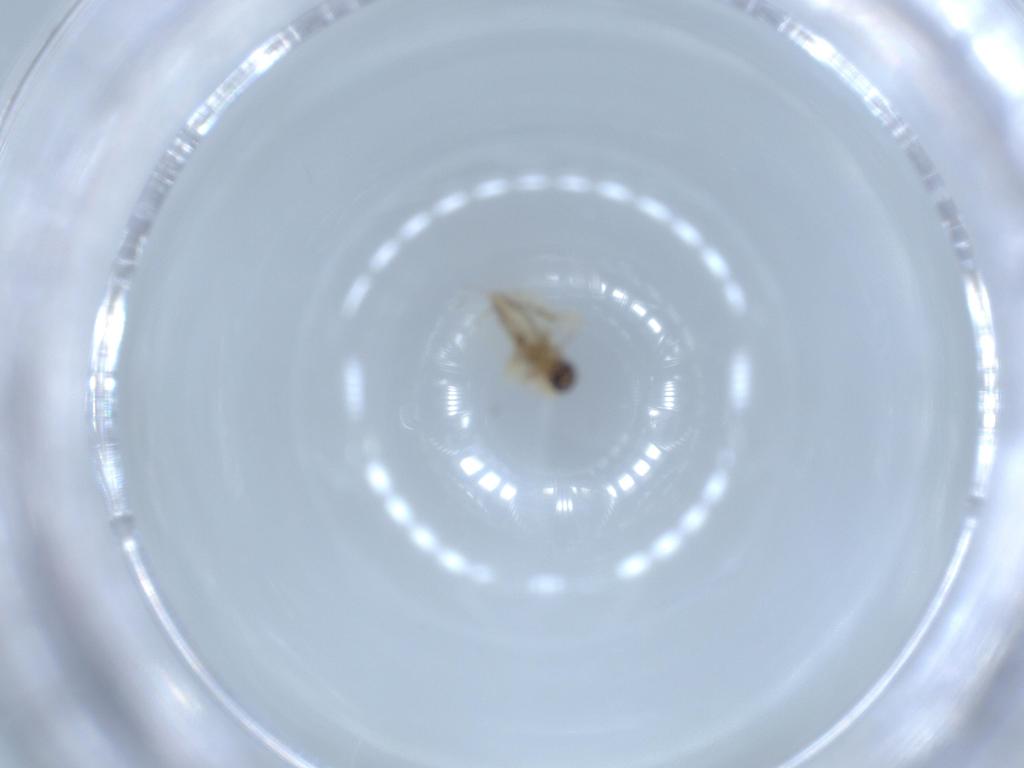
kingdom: Animalia
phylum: Arthropoda
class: Insecta
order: Diptera
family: Psychodidae
